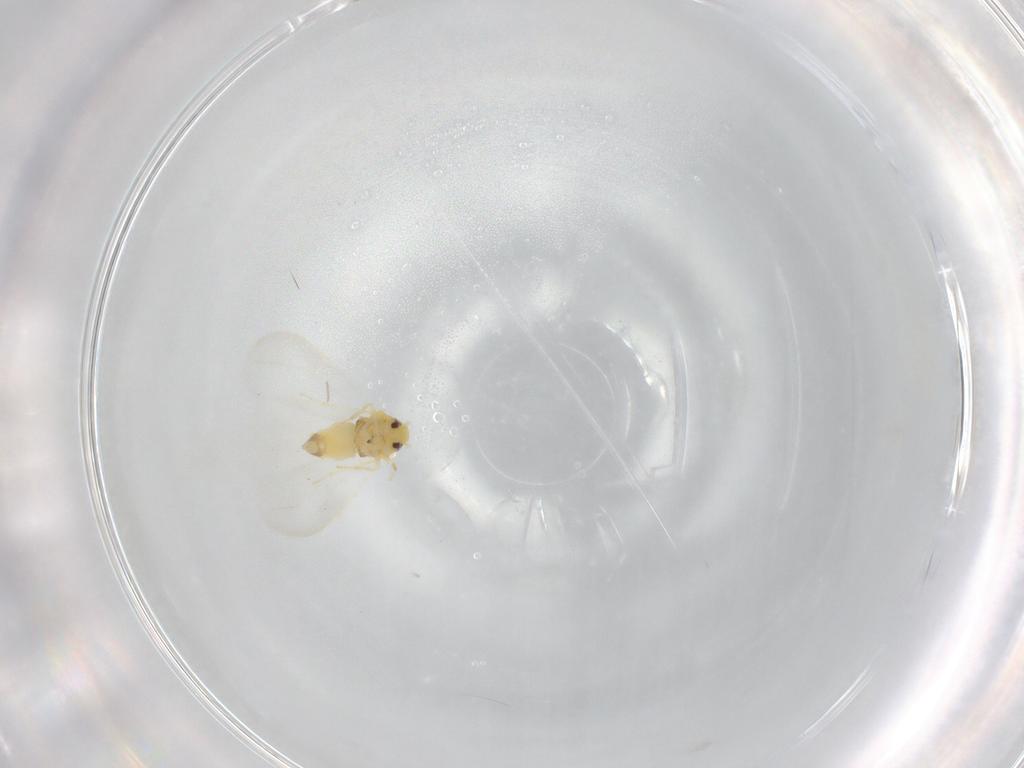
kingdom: Animalia
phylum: Arthropoda
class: Insecta
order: Hemiptera
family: Aleyrodidae
